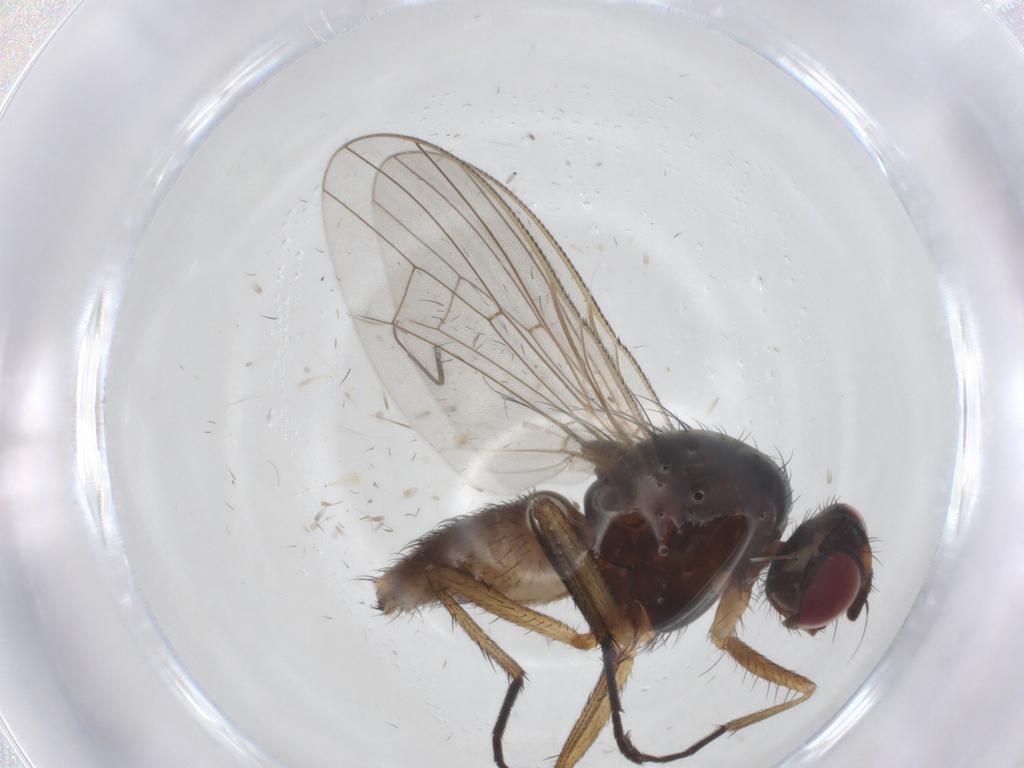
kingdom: Animalia
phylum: Arthropoda
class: Insecta
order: Diptera
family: Anthomyiidae
